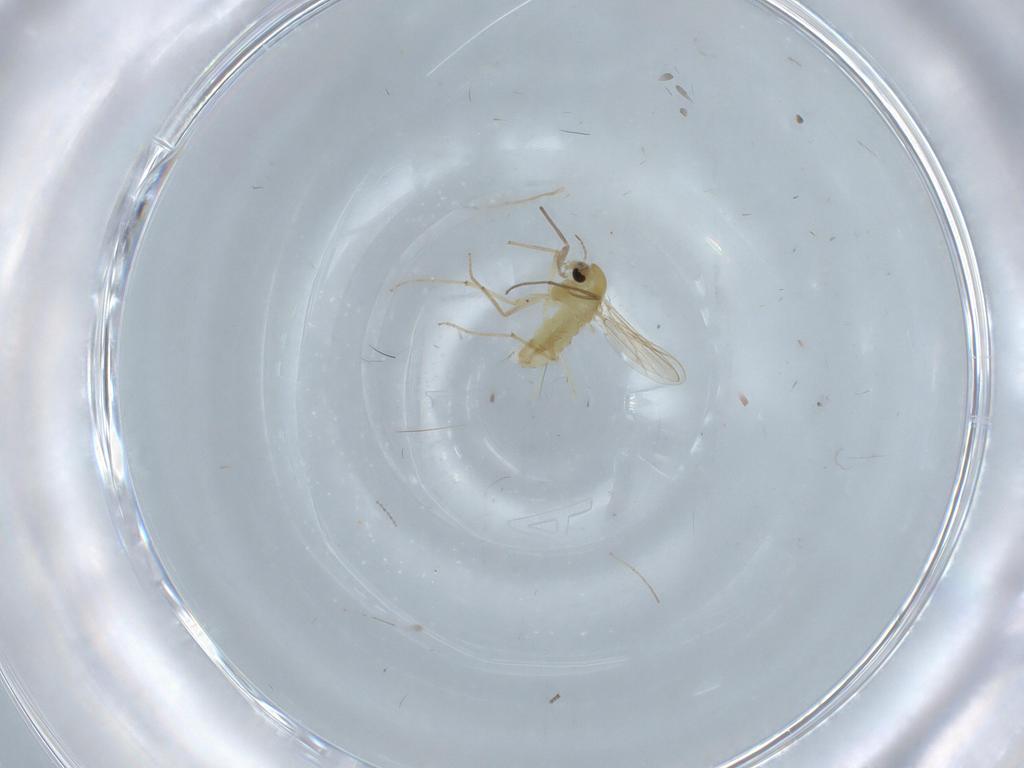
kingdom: Animalia
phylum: Arthropoda
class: Insecta
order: Diptera
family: Chironomidae
